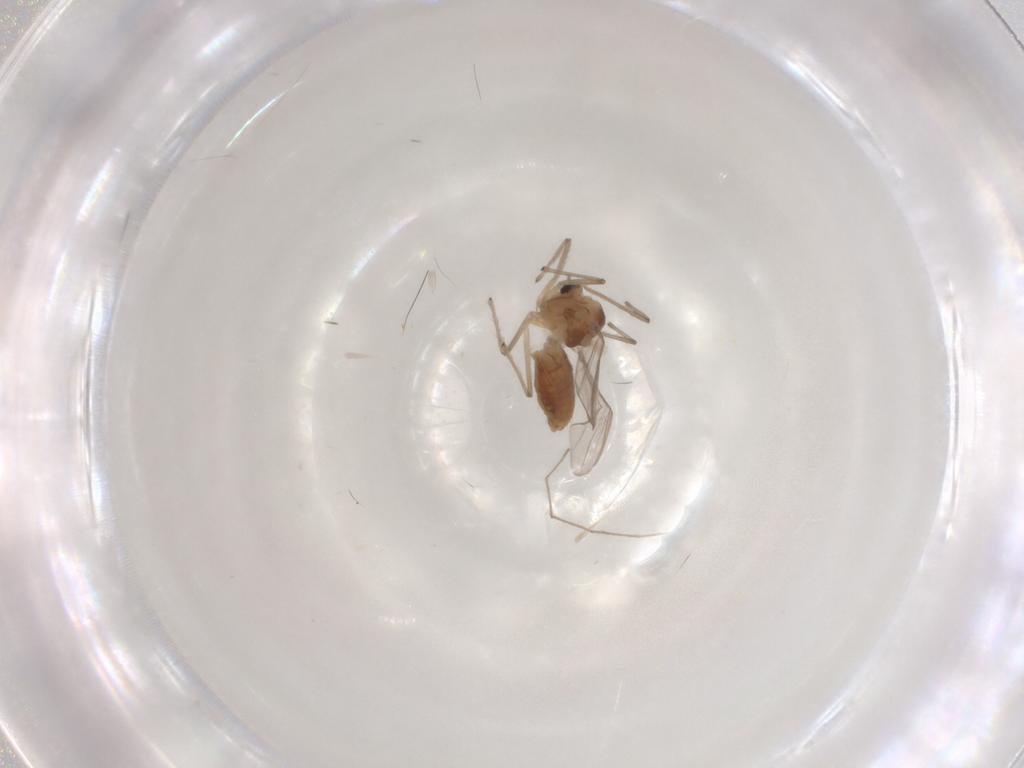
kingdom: Animalia
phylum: Arthropoda
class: Insecta
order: Diptera
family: Chironomidae
